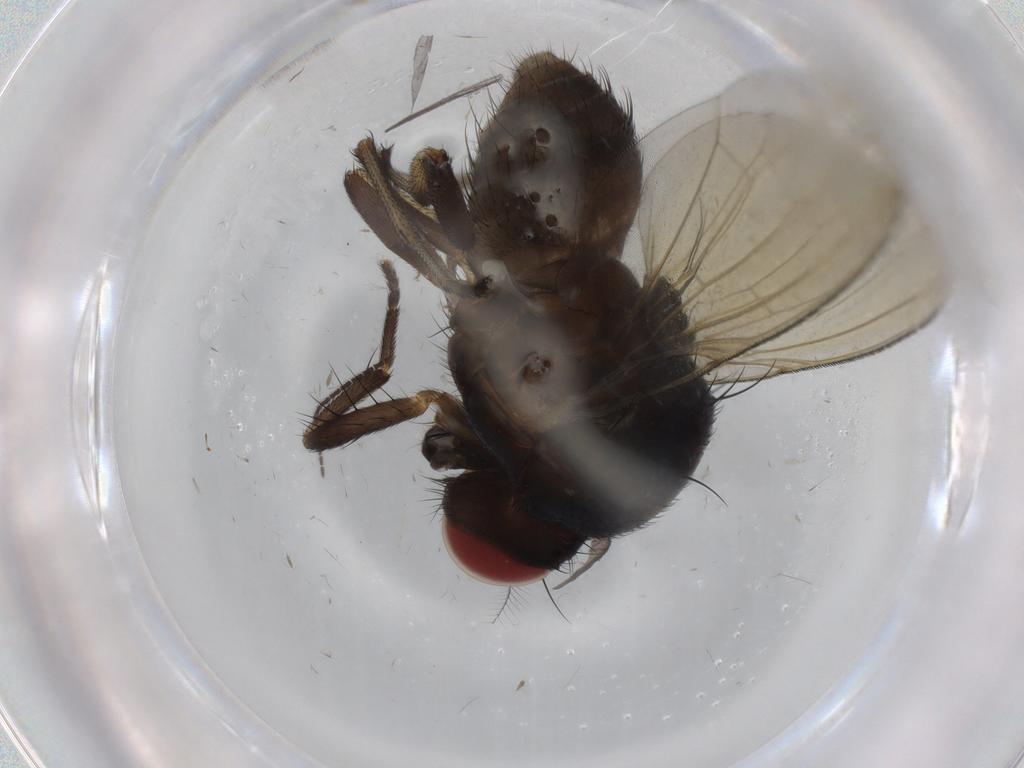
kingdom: Animalia
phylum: Arthropoda
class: Insecta
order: Diptera
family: Lauxaniidae
